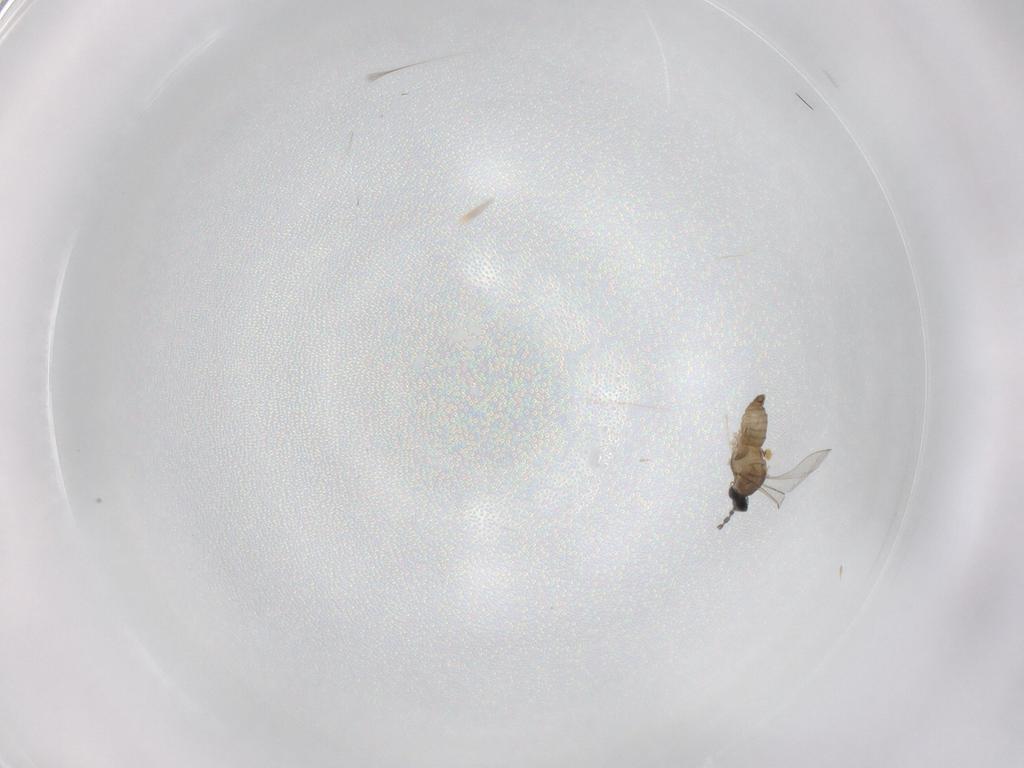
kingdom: Animalia
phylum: Arthropoda
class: Insecta
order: Diptera
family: Cecidomyiidae
